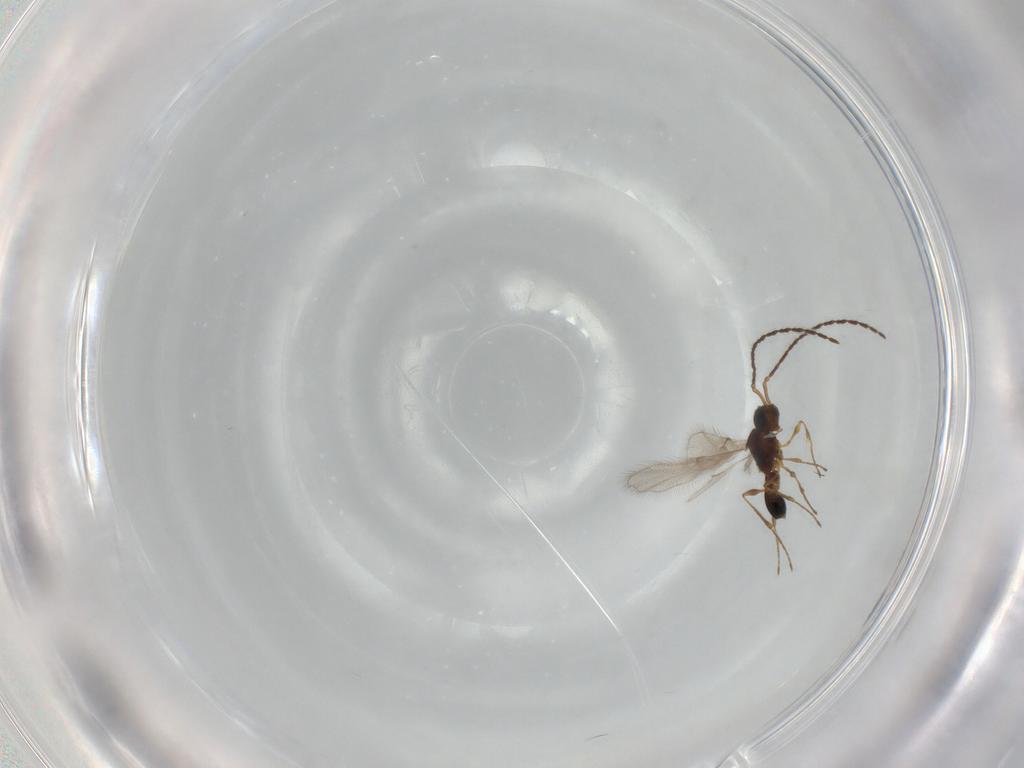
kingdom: Animalia
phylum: Arthropoda
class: Insecta
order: Hymenoptera
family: Diapriidae
